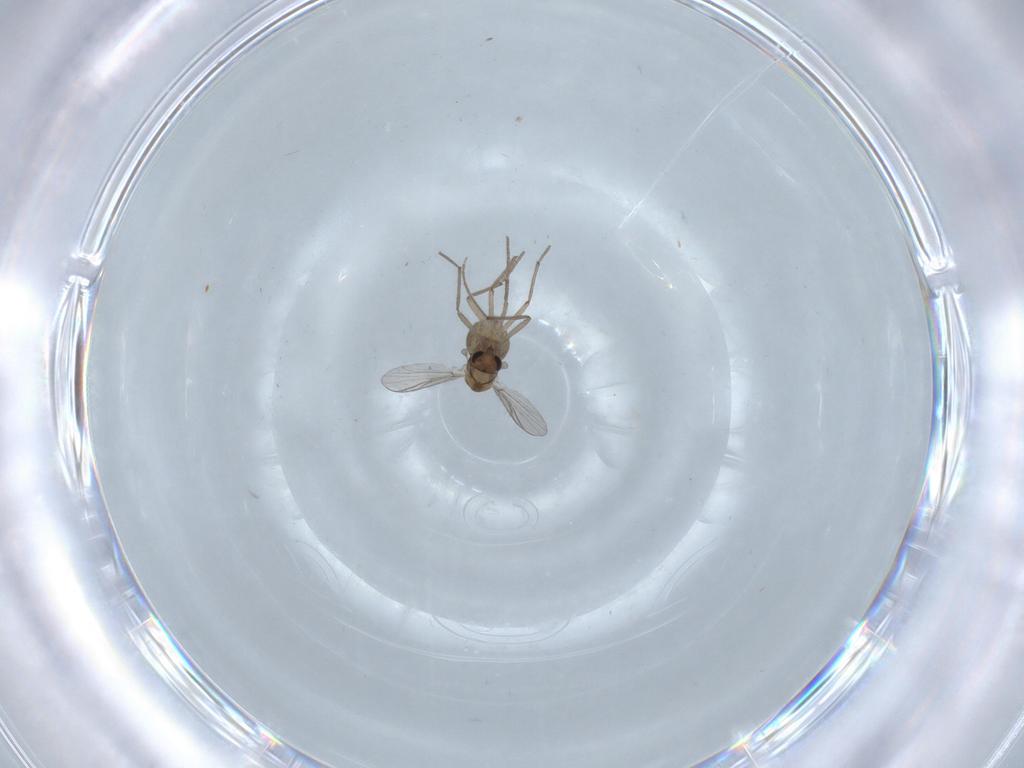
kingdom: Animalia
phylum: Arthropoda
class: Insecta
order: Diptera
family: Chironomidae
